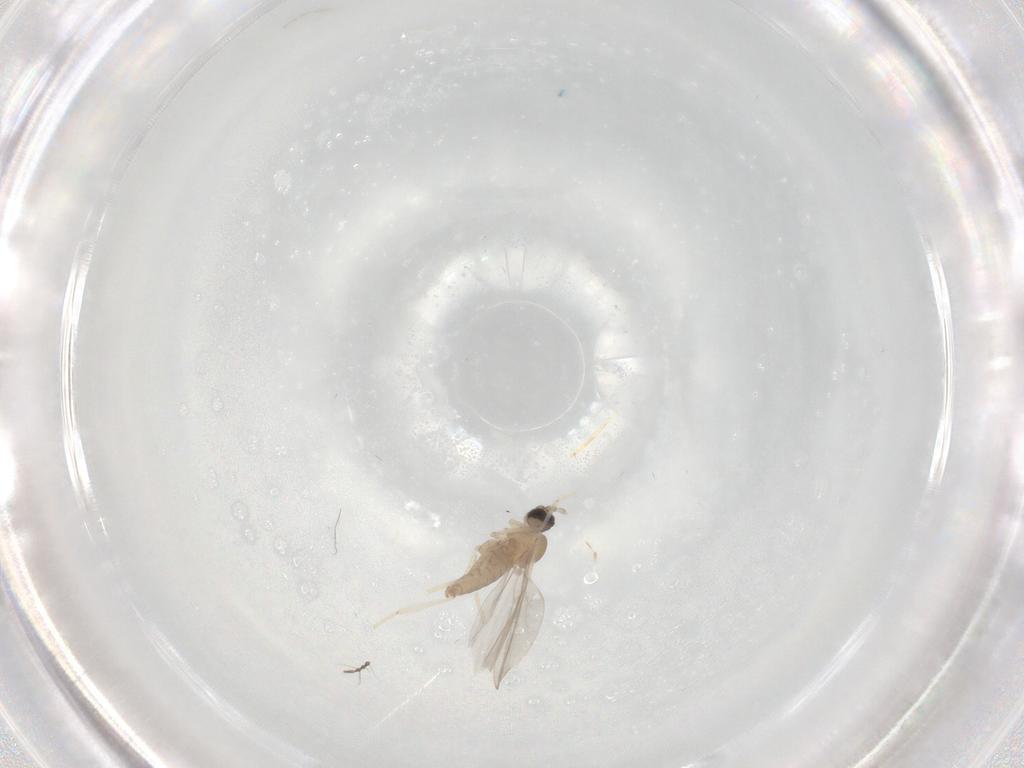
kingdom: Animalia
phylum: Arthropoda
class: Insecta
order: Diptera
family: Cecidomyiidae
